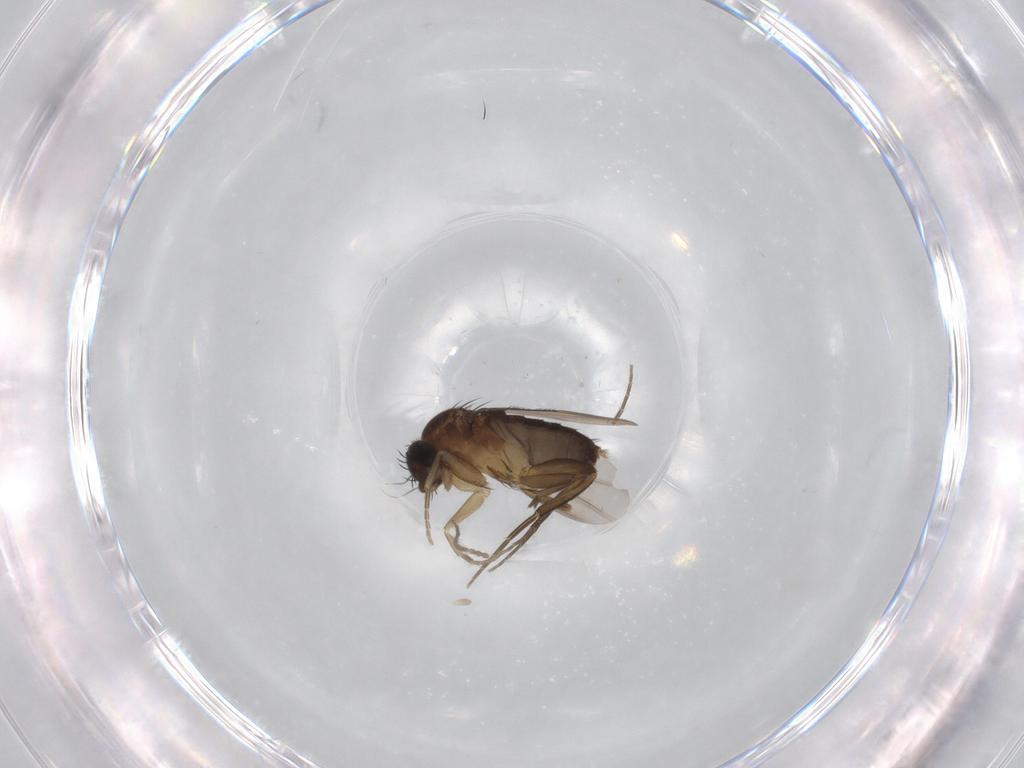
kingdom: Animalia
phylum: Arthropoda
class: Insecta
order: Diptera
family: Phoridae
